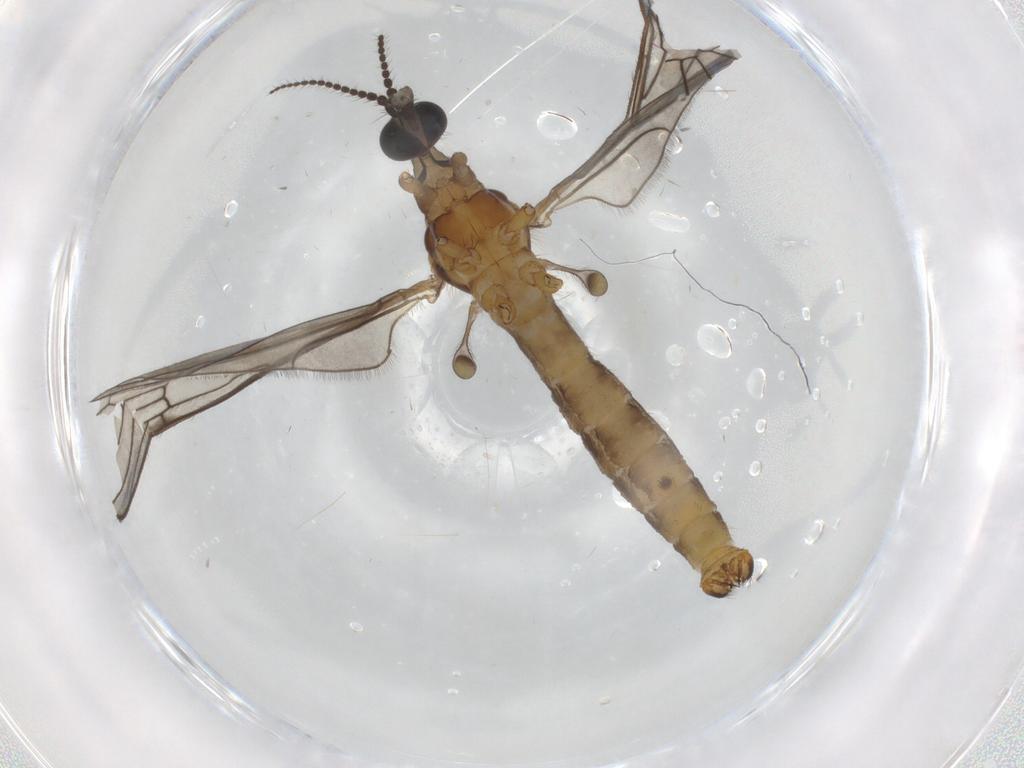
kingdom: Animalia
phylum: Arthropoda
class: Insecta
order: Diptera
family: Limoniidae
